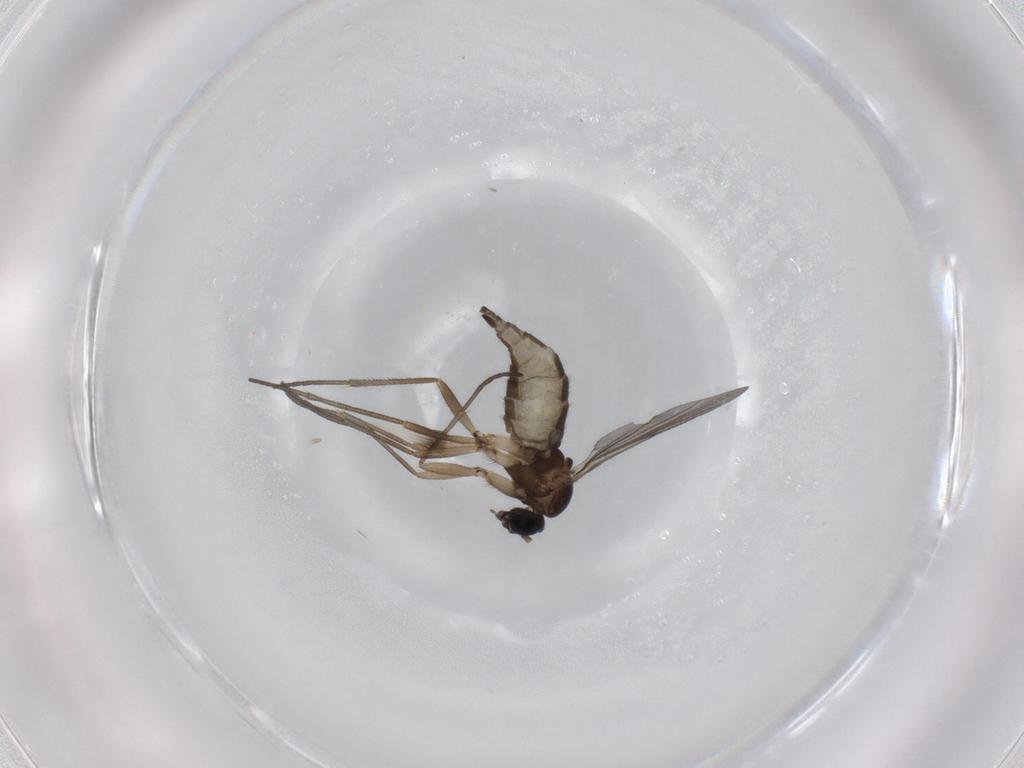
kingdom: Animalia
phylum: Arthropoda
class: Insecta
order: Diptera
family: Sciaridae
